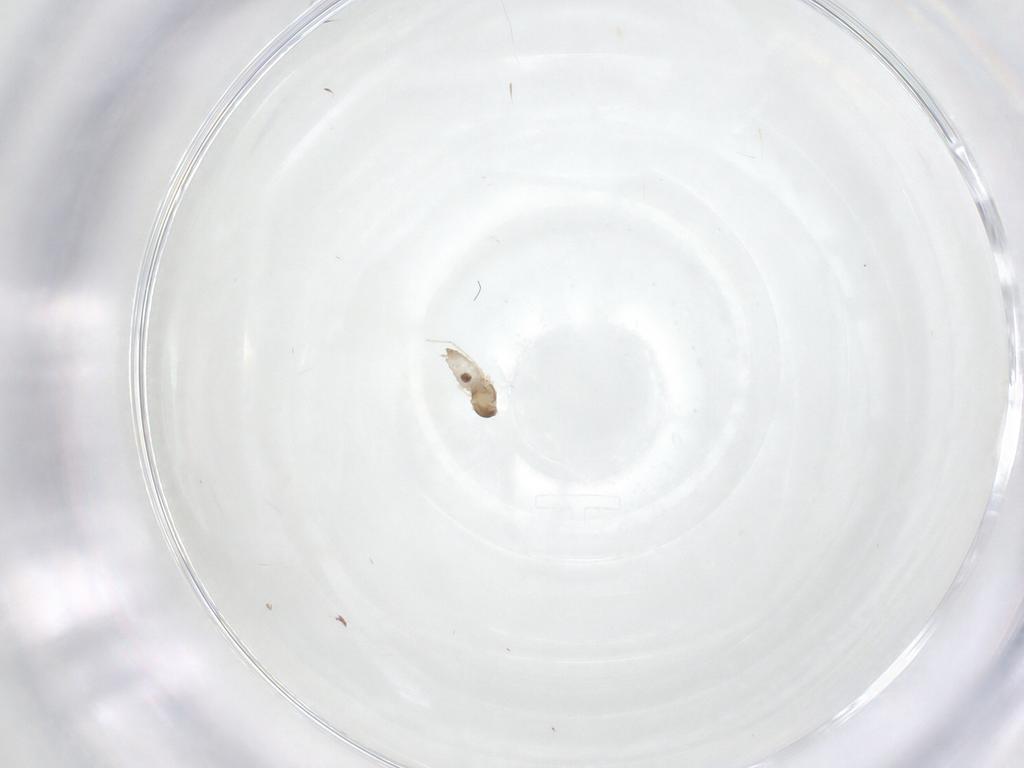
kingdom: Animalia
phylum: Arthropoda
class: Insecta
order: Diptera
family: Cecidomyiidae
